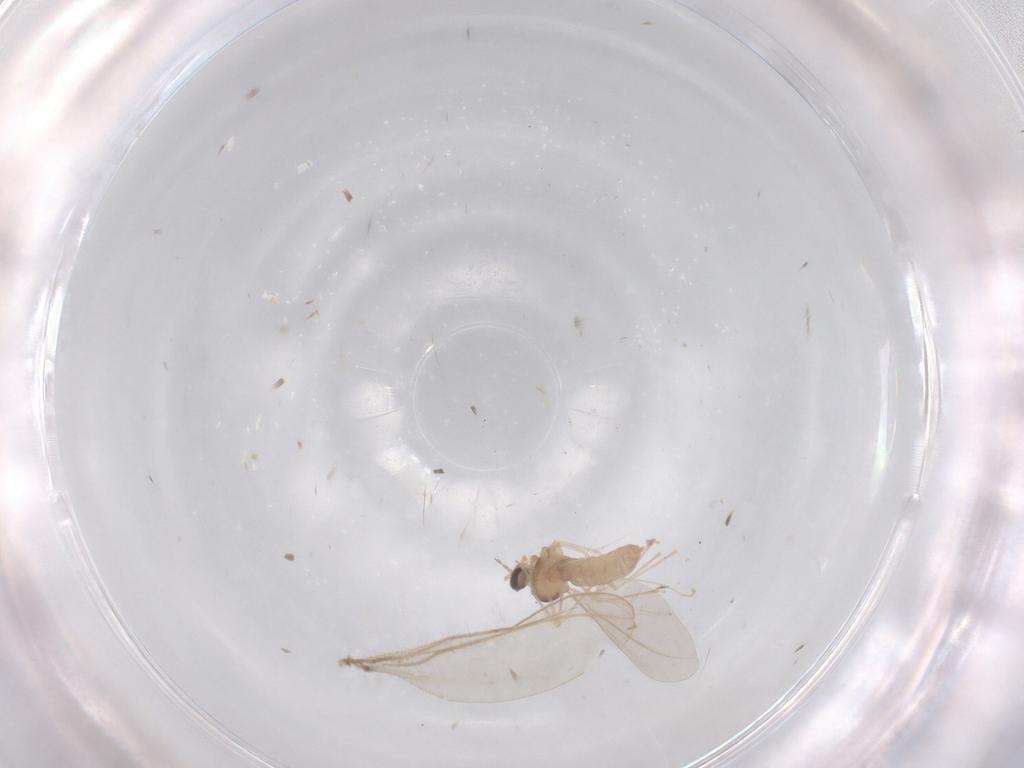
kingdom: Animalia
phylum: Arthropoda
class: Insecta
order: Diptera
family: Cecidomyiidae
